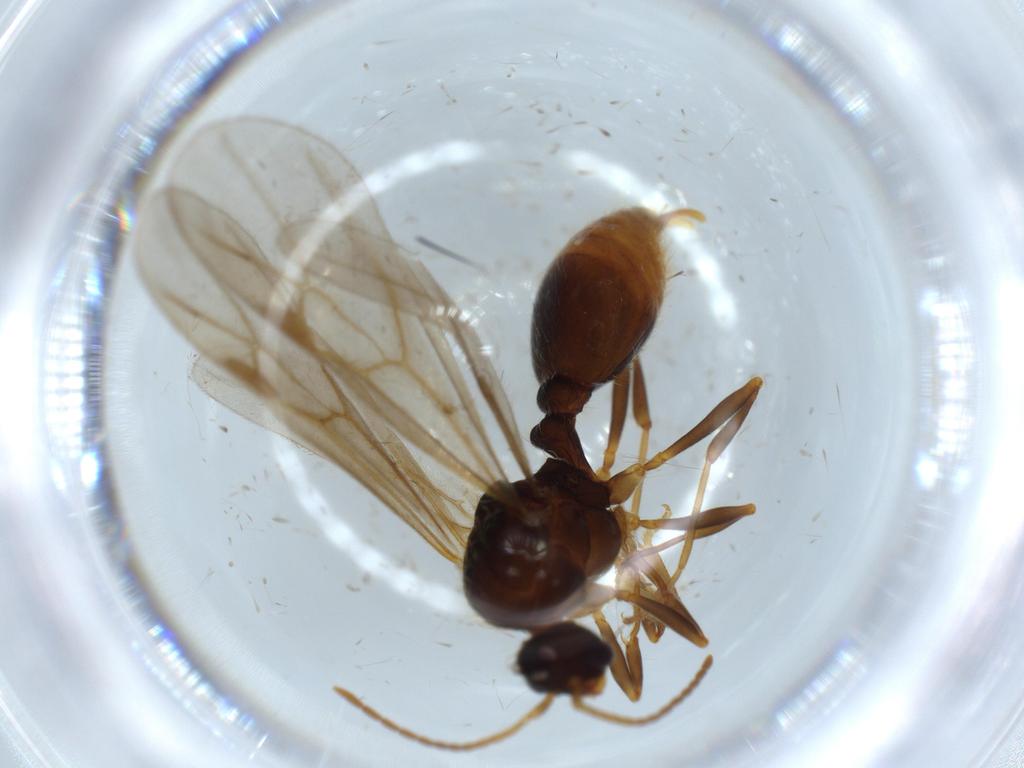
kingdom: Animalia
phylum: Arthropoda
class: Insecta
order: Hymenoptera
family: Formicidae
